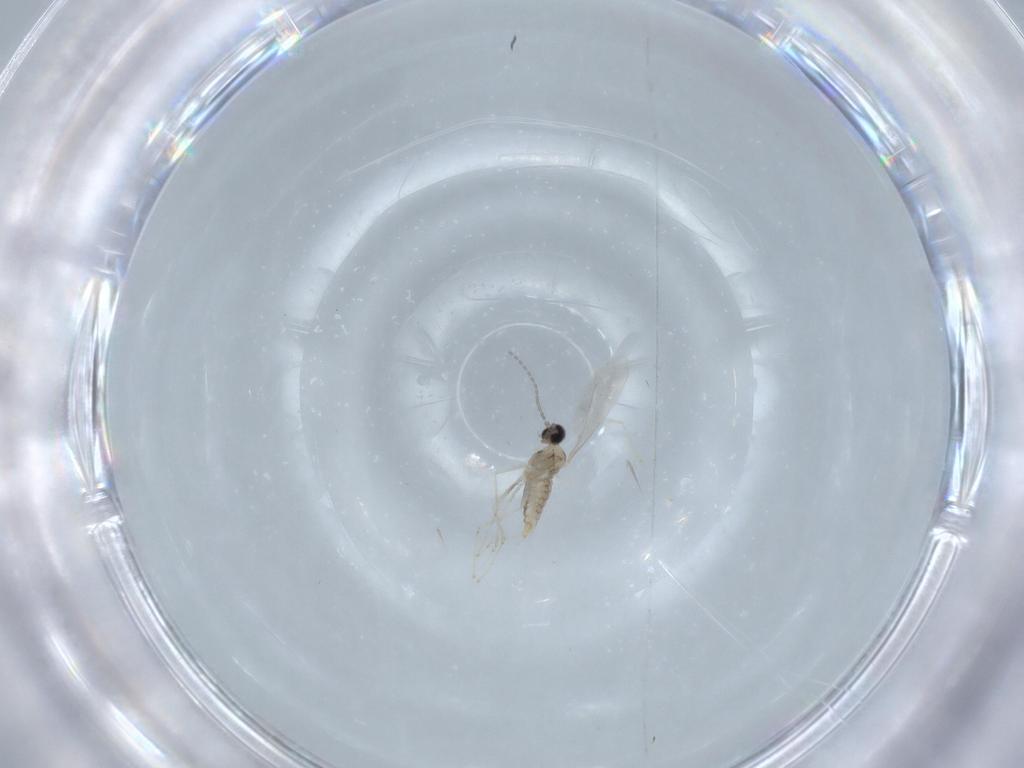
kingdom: Animalia
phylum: Arthropoda
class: Insecta
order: Diptera
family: Cecidomyiidae
